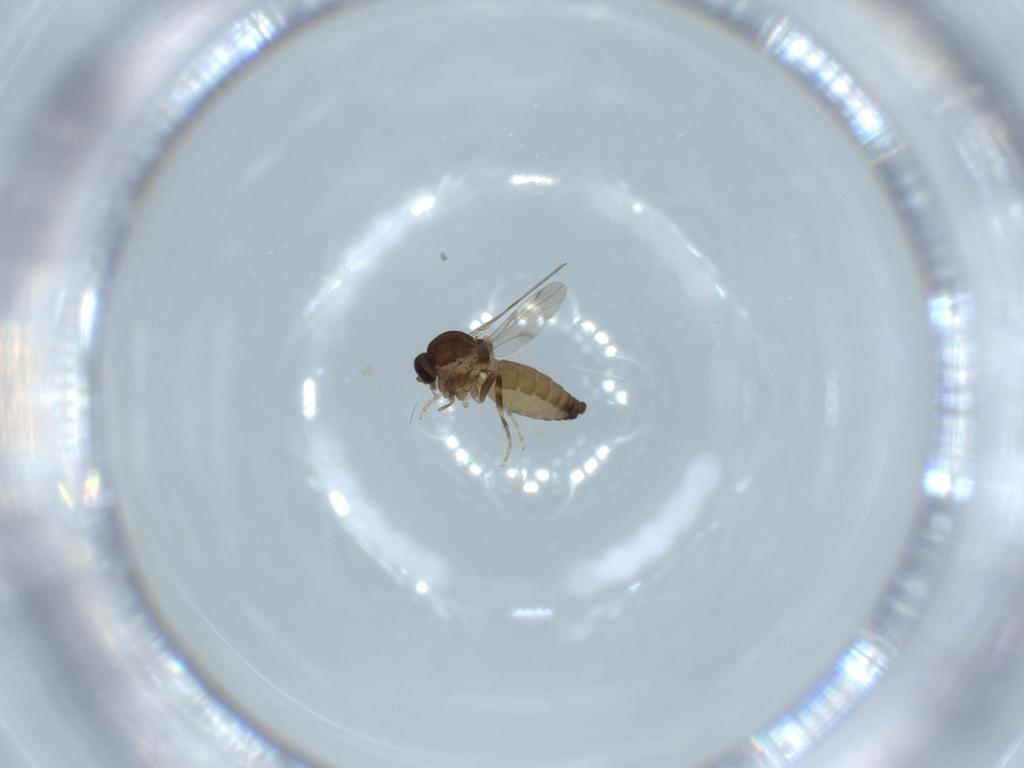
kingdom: Animalia
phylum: Arthropoda
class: Insecta
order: Diptera
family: Ceratopogonidae
